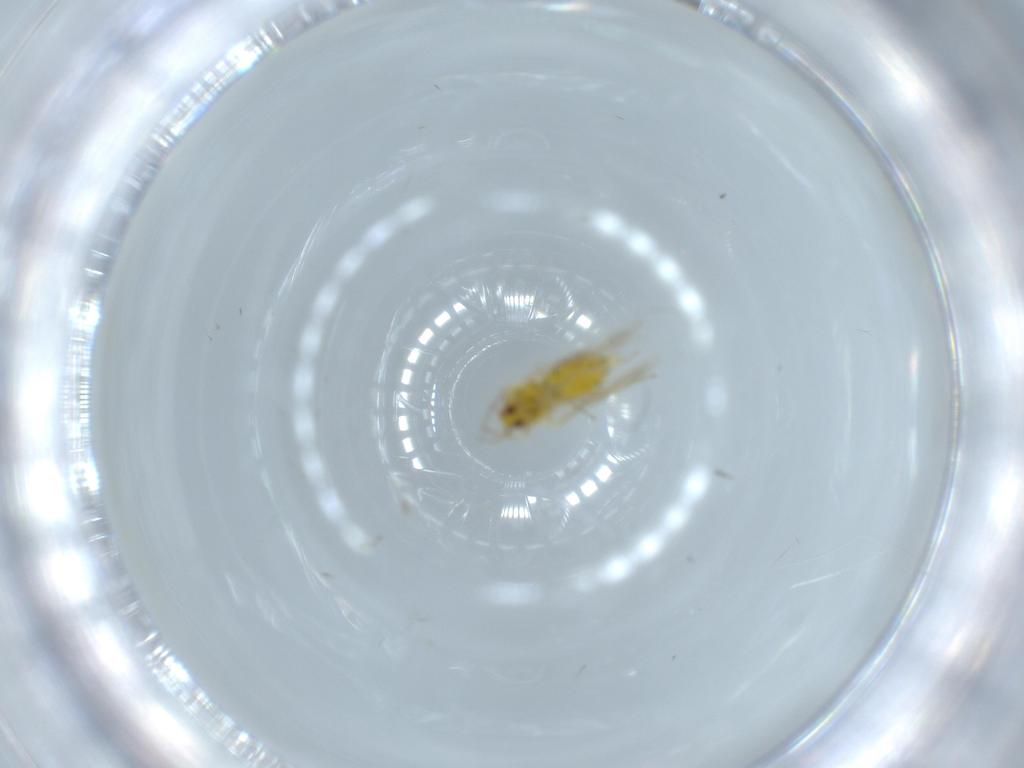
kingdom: Animalia
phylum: Arthropoda
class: Insecta
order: Hemiptera
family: Aleyrodidae
